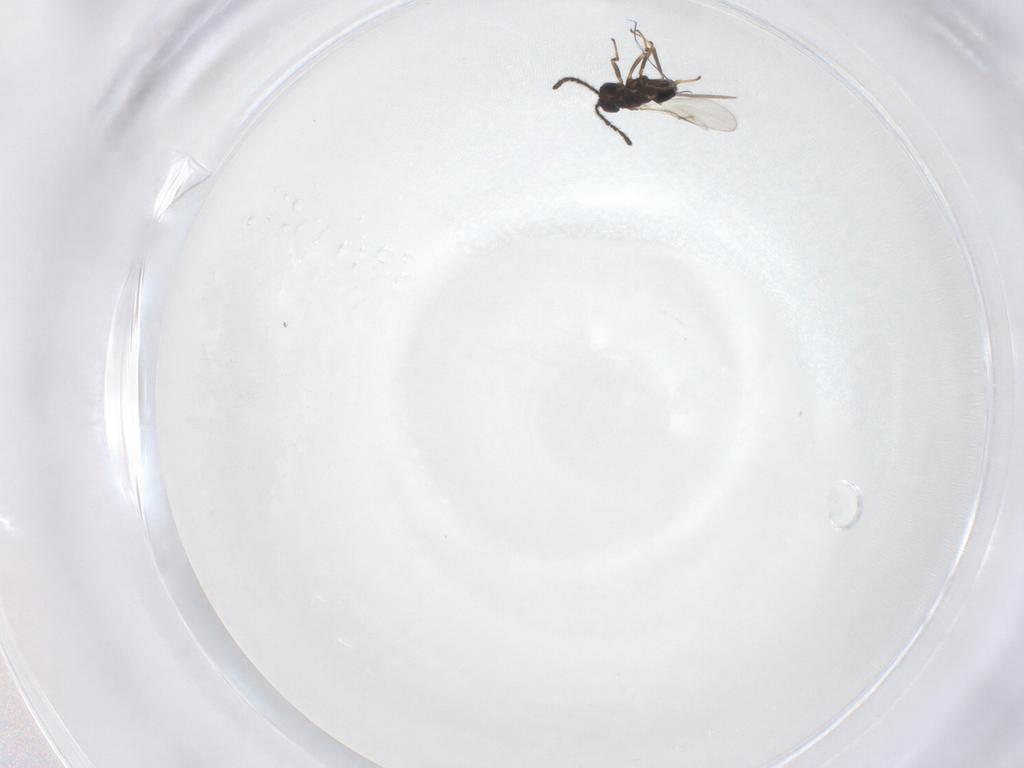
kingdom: Animalia
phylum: Arthropoda
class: Insecta
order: Hymenoptera
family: Encyrtidae
